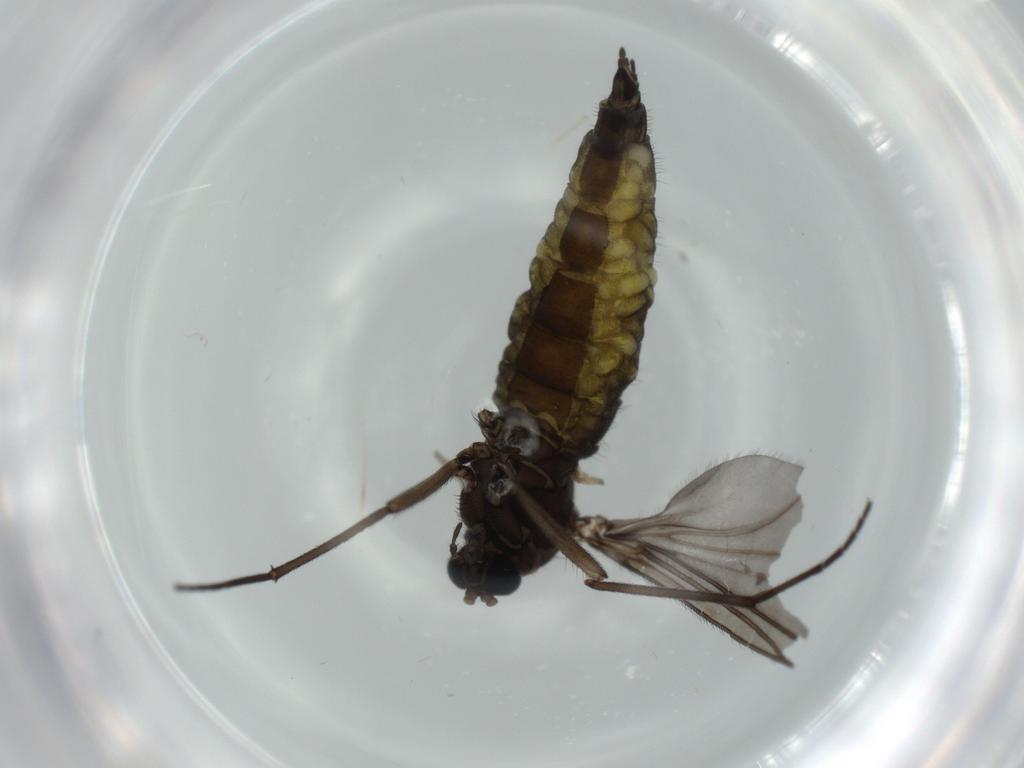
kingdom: Animalia
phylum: Arthropoda
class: Insecta
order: Diptera
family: Sciaridae
